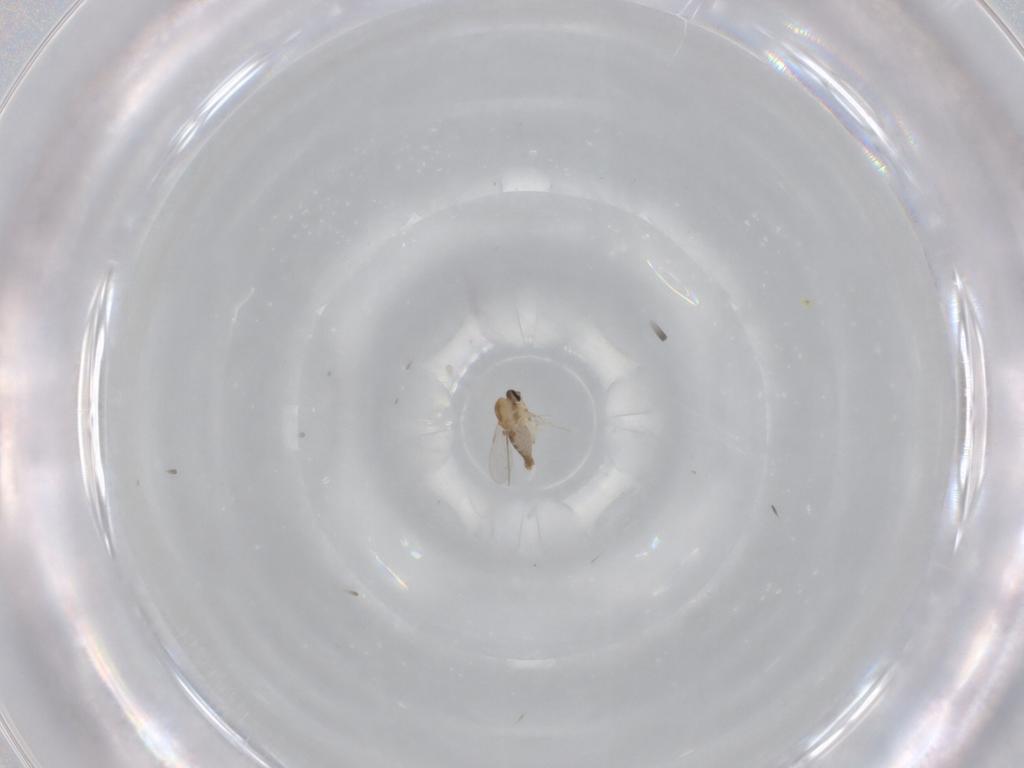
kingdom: Animalia
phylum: Arthropoda
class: Insecta
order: Diptera
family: Ceratopogonidae
